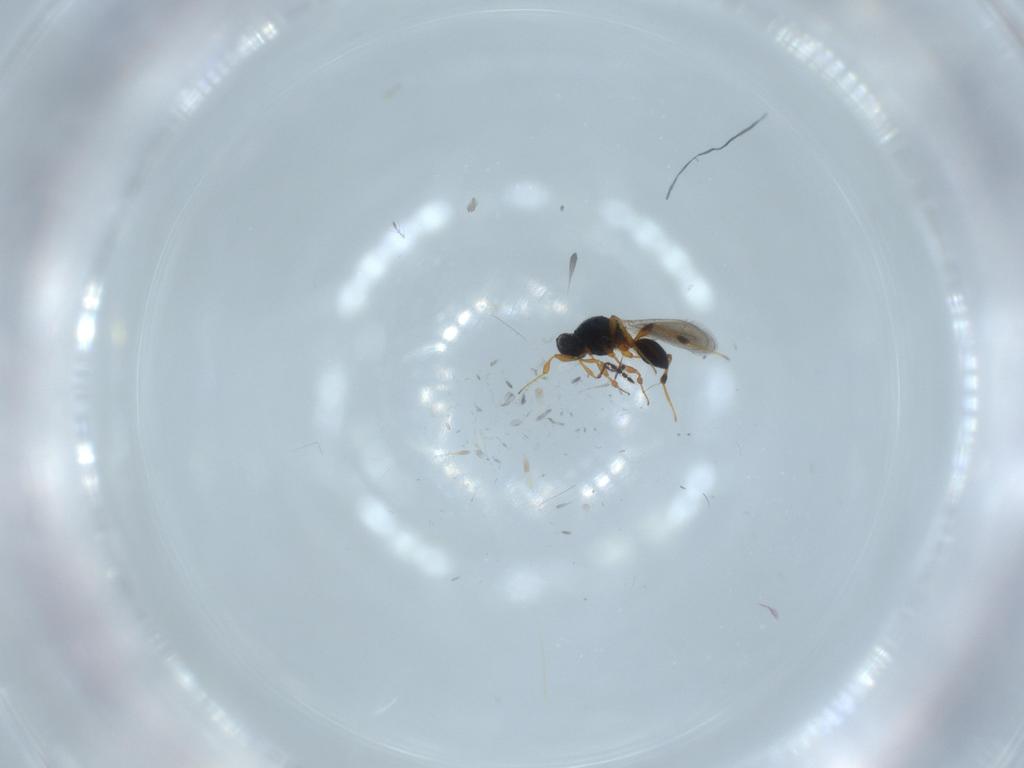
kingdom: Animalia
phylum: Arthropoda
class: Insecta
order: Hymenoptera
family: Platygastridae
